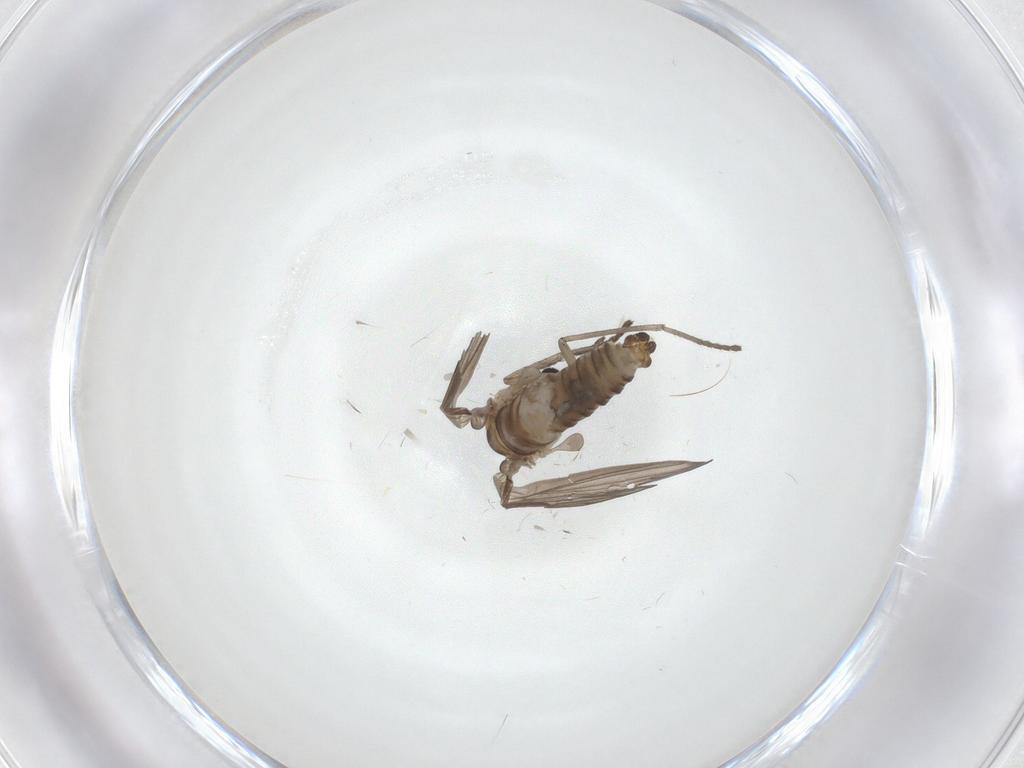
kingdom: Animalia
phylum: Arthropoda
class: Insecta
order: Diptera
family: Psychodidae
